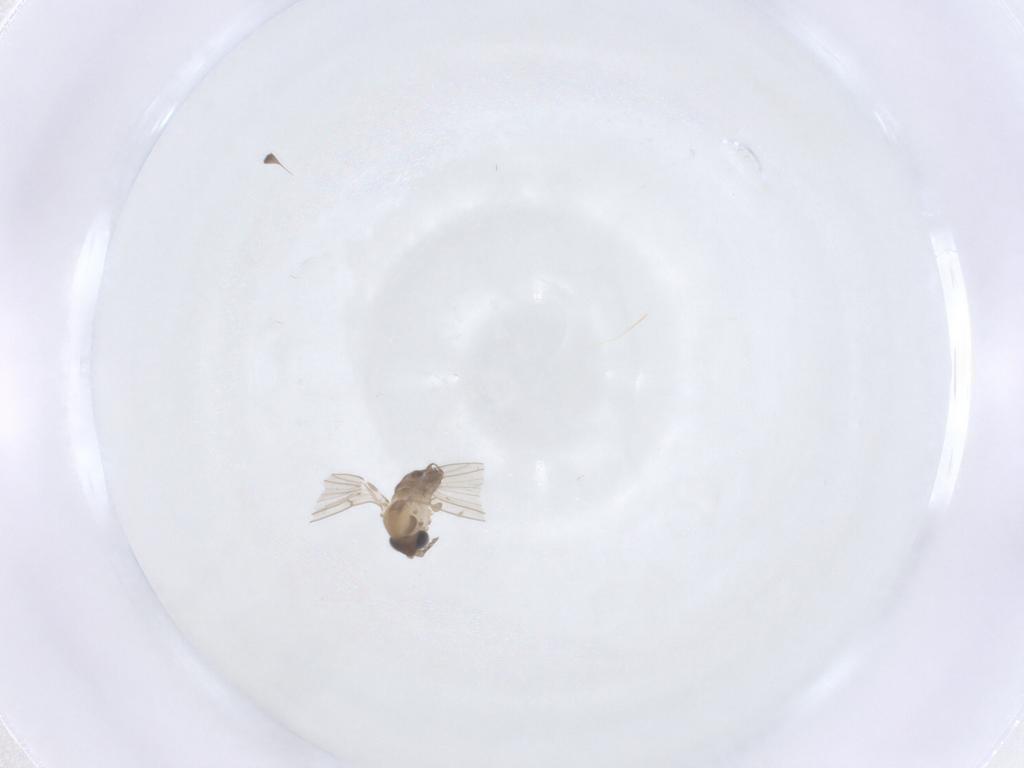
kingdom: Animalia
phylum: Arthropoda
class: Insecta
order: Diptera
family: Psychodidae
